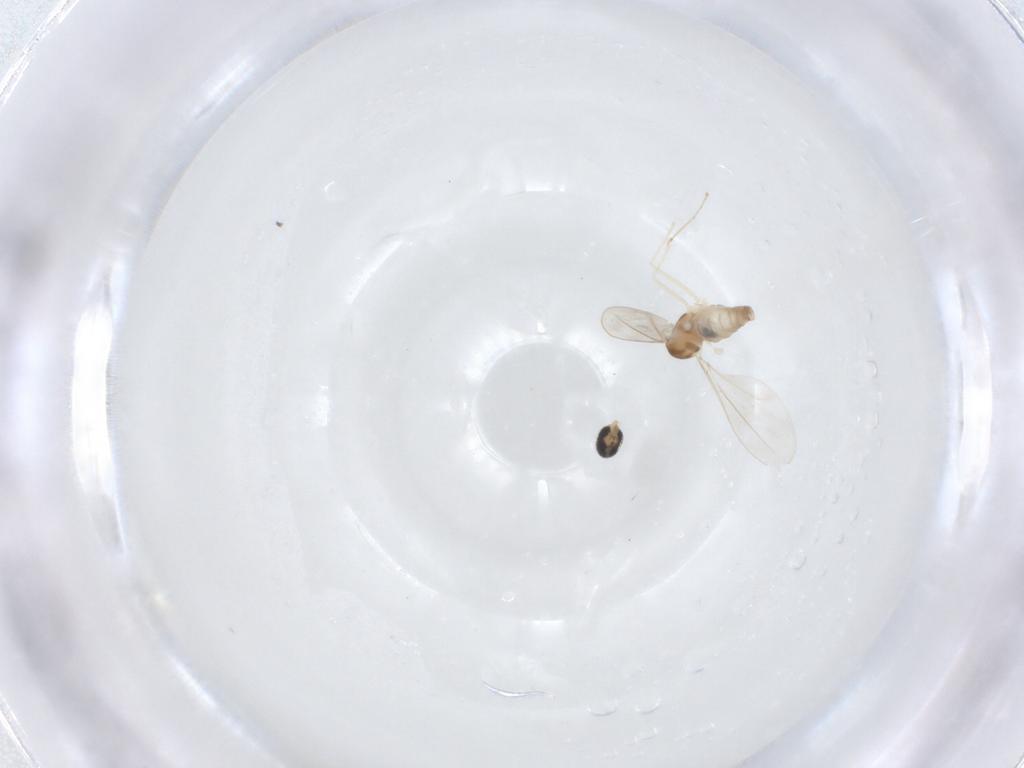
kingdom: Animalia
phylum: Arthropoda
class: Insecta
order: Diptera
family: Cecidomyiidae
